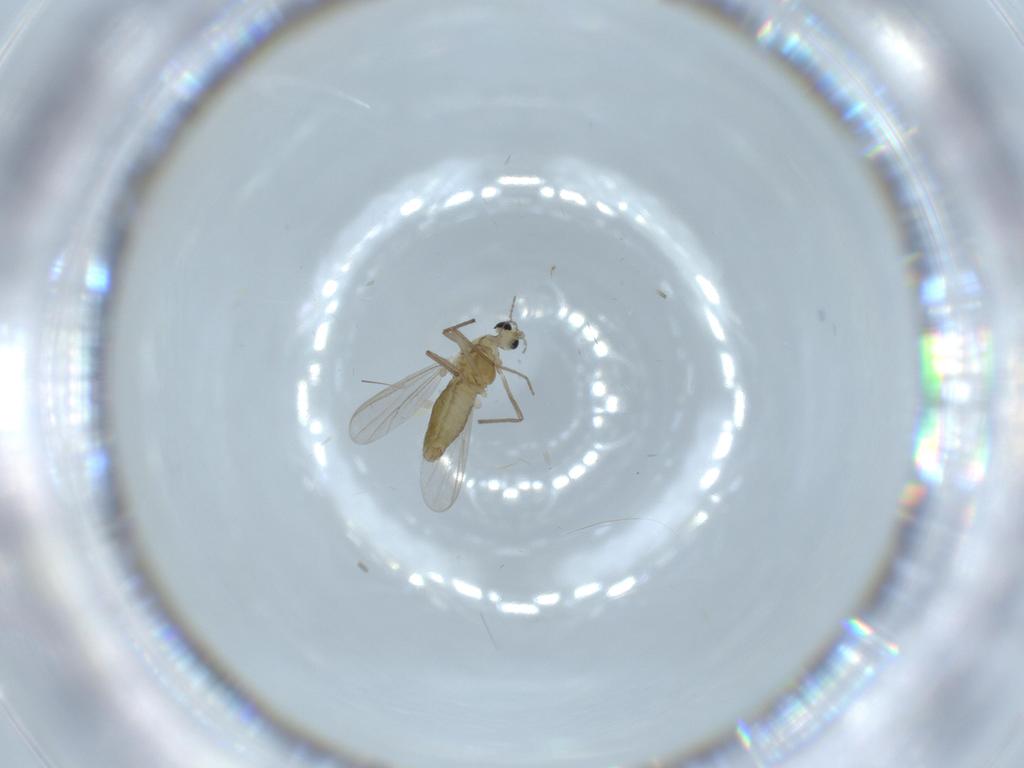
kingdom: Animalia
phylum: Arthropoda
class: Insecta
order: Diptera
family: Chironomidae
